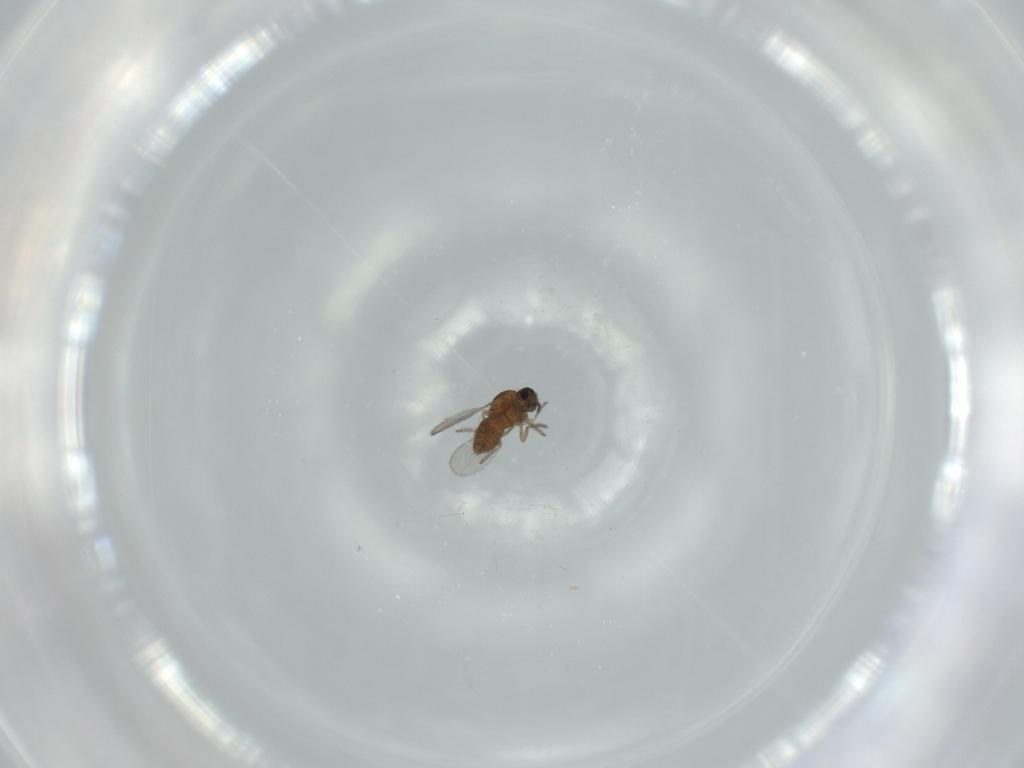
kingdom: Animalia
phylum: Arthropoda
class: Insecta
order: Diptera
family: Ceratopogonidae
